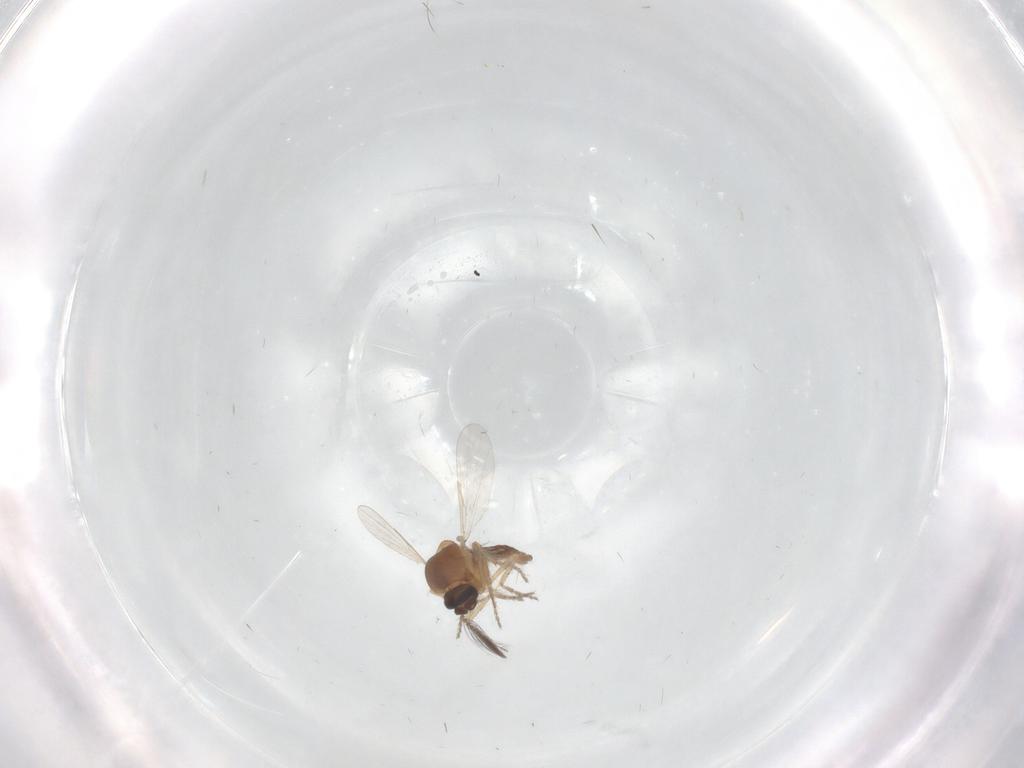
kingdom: Animalia
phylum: Arthropoda
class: Insecta
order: Diptera
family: Ceratopogonidae
